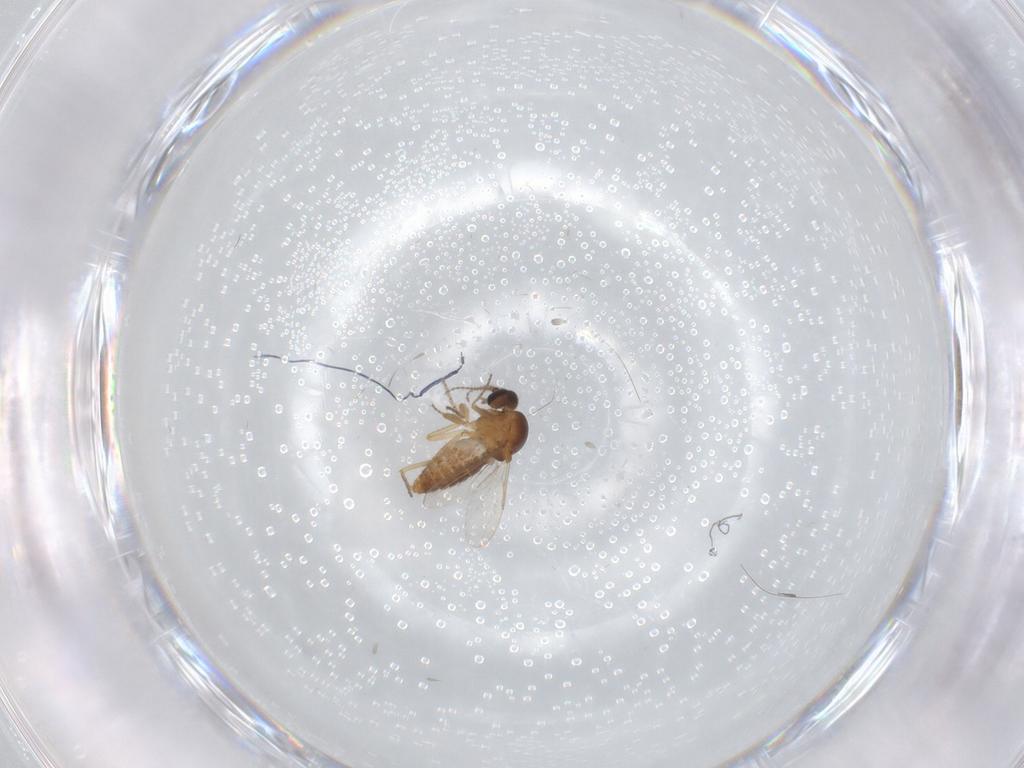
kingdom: Animalia
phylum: Arthropoda
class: Insecta
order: Diptera
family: Ceratopogonidae
